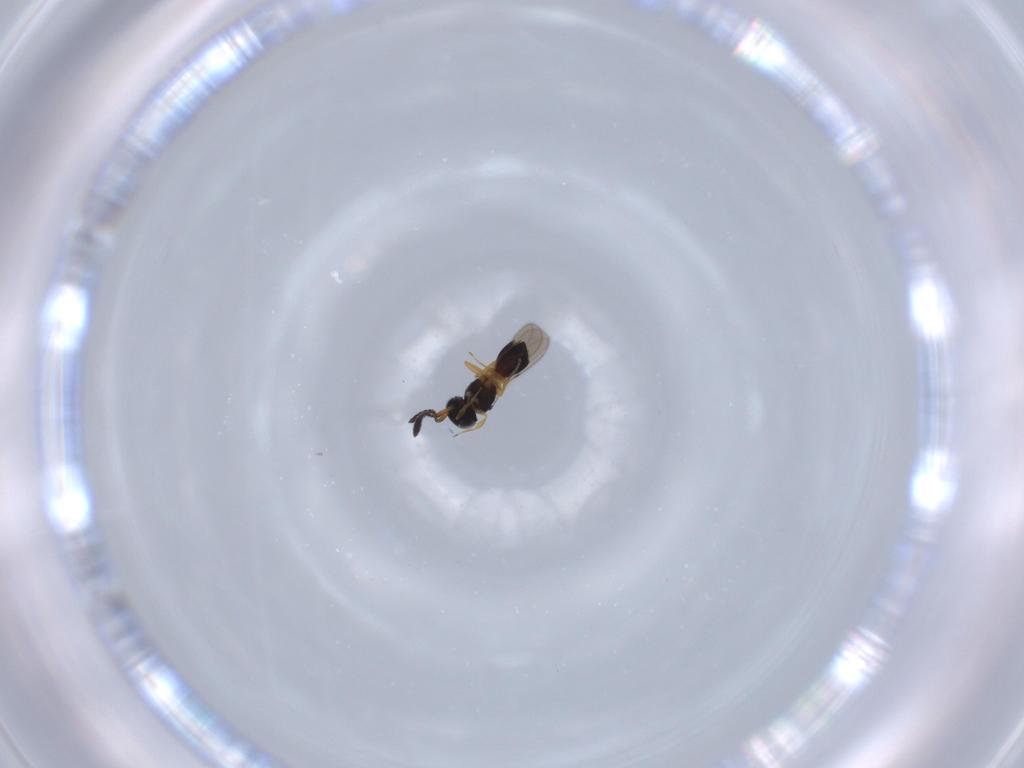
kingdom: Animalia
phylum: Arthropoda
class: Insecta
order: Hymenoptera
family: Scelionidae
